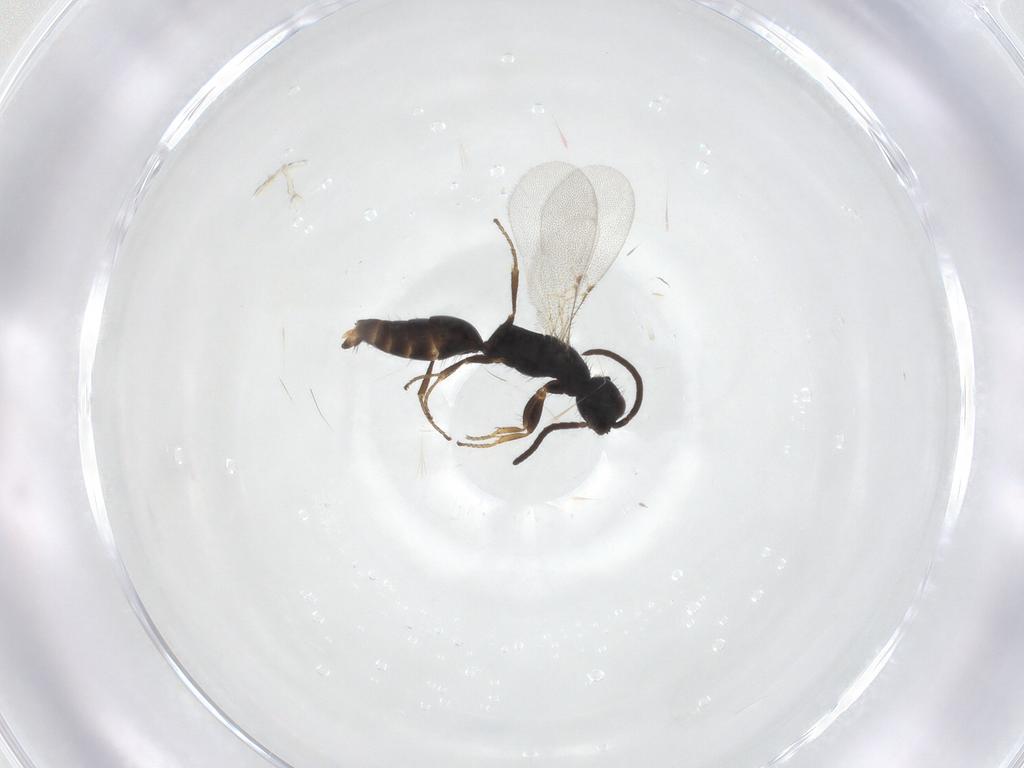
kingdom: Animalia
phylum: Arthropoda
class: Insecta
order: Hymenoptera
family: Bethylidae
